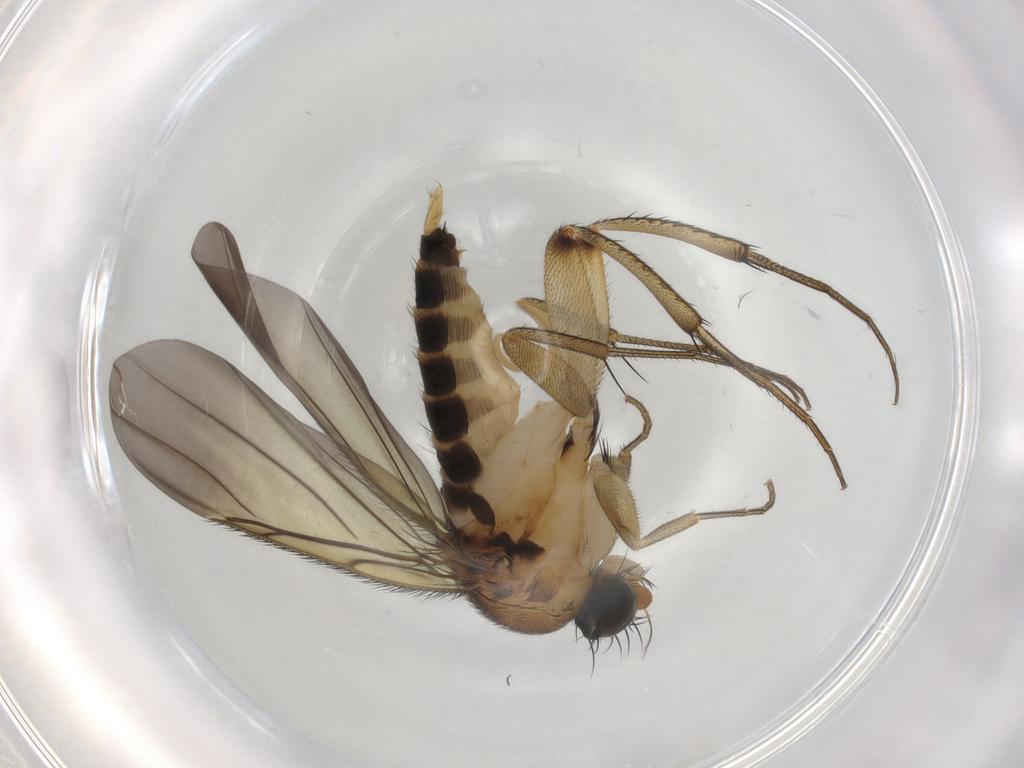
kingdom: Animalia
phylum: Arthropoda
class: Insecta
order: Diptera
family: Phoridae
